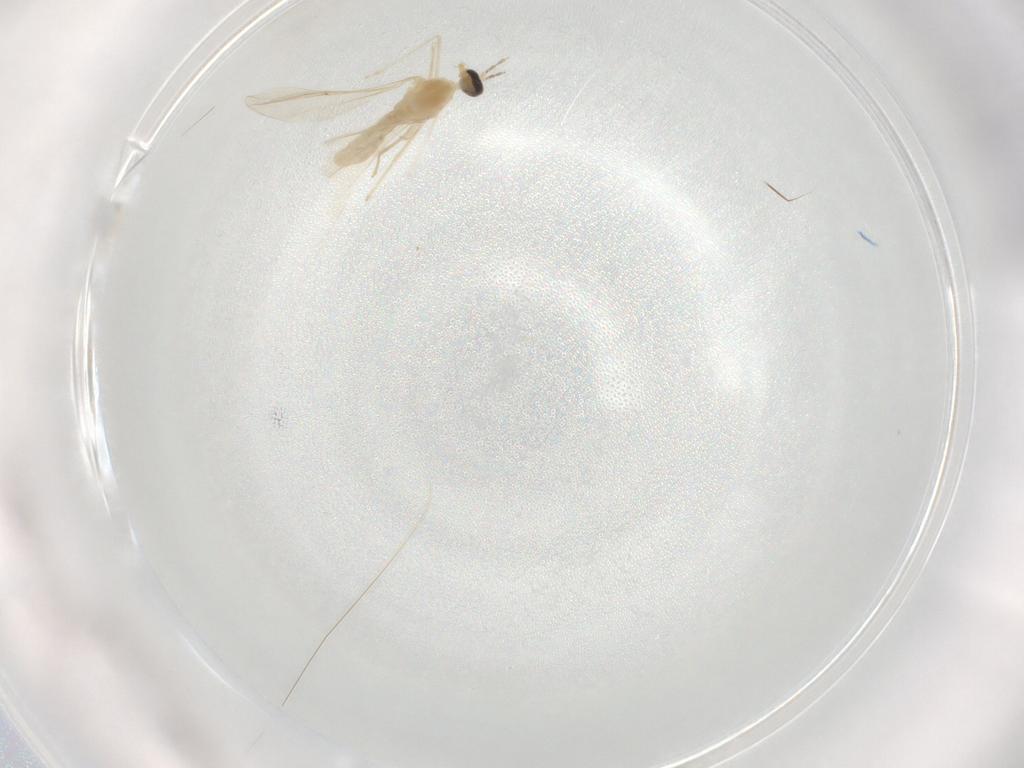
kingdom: Animalia
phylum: Arthropoda
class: Insecta
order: Diptera
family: Cecidomyiidae
